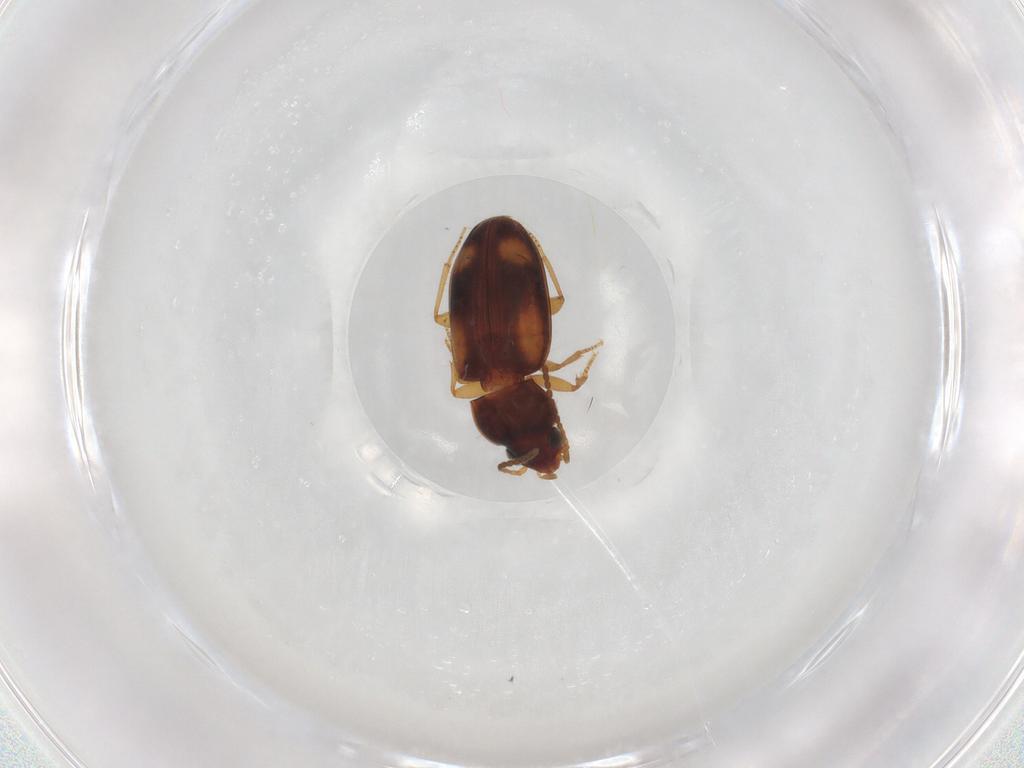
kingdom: Animalia
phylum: Arthropoda
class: Insecta
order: Coleoptera
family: Carabidae
